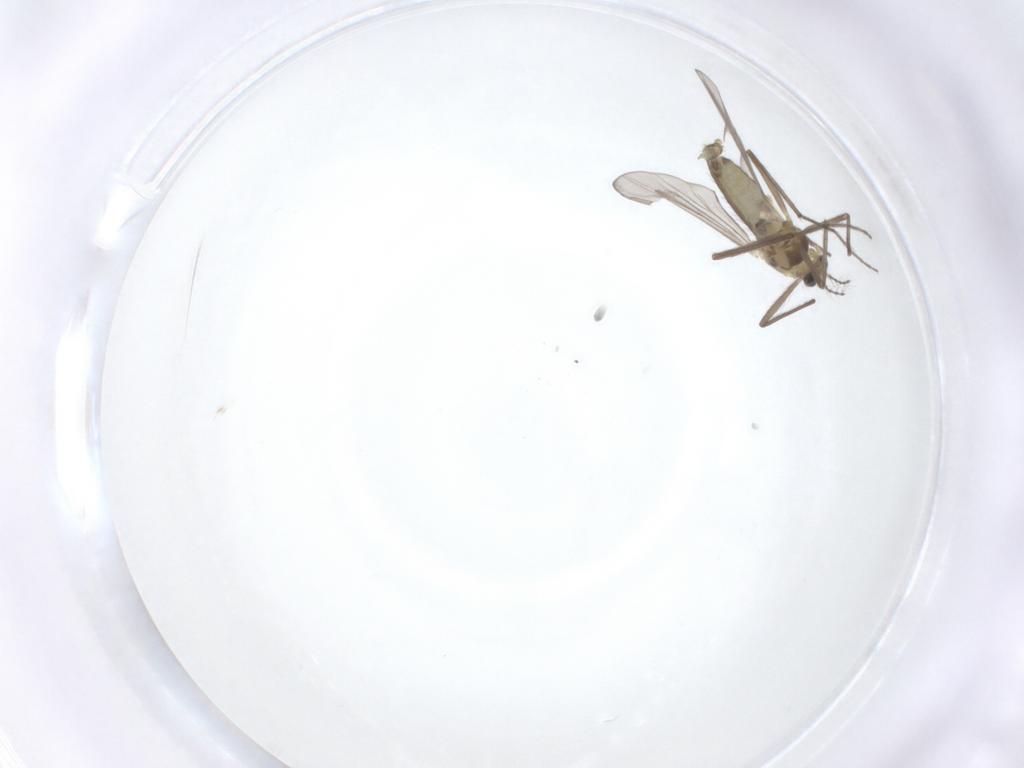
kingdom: Animalia
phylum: Arthropoda
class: Insecta
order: Diptera
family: Chironomidae
